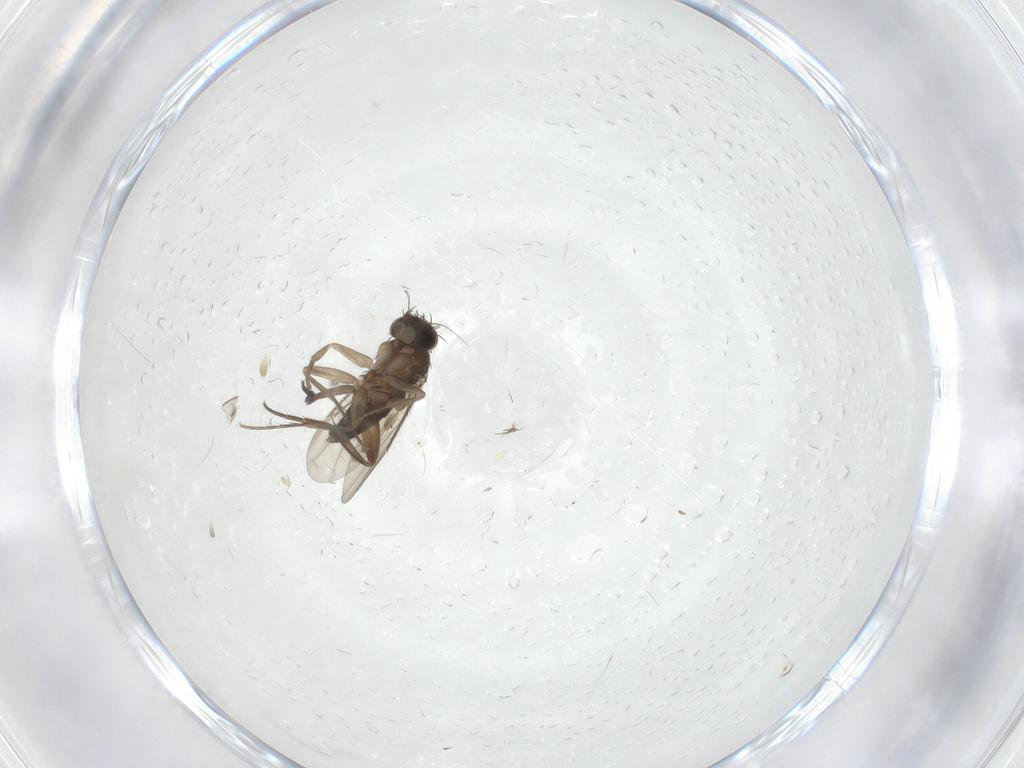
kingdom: Animalia
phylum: Arthropoda
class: Insecta
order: Diptera
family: Phoridae
